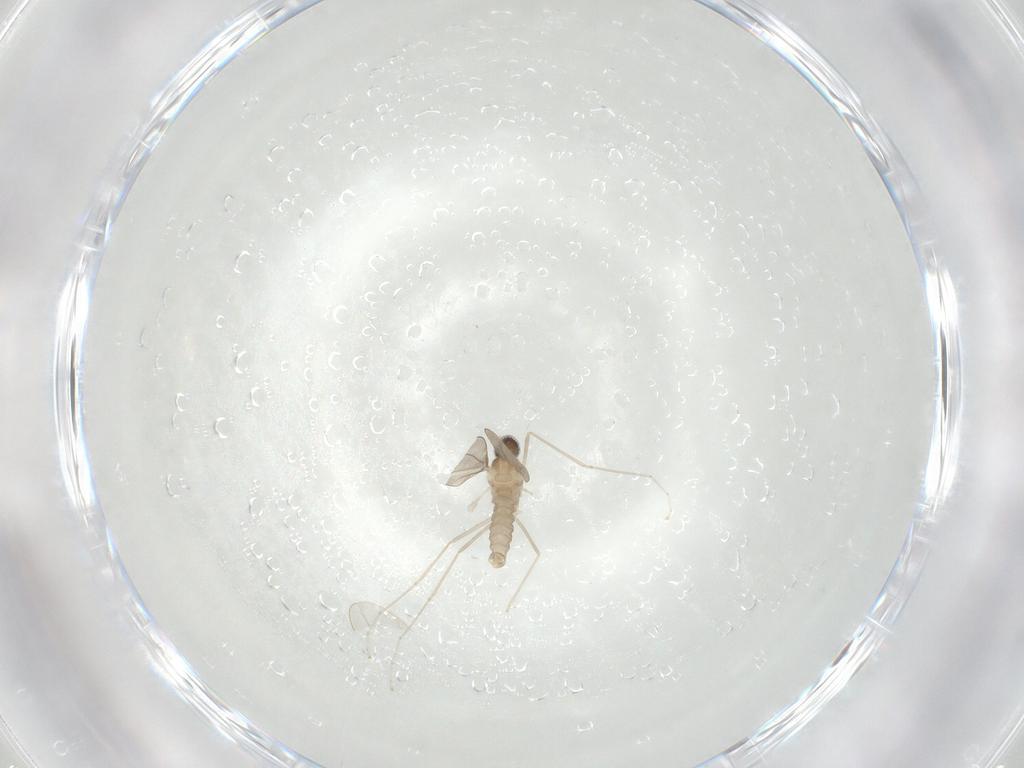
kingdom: Animalia
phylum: Arthropoda
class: Insecta
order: Diptera
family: Cecidomyiidae
